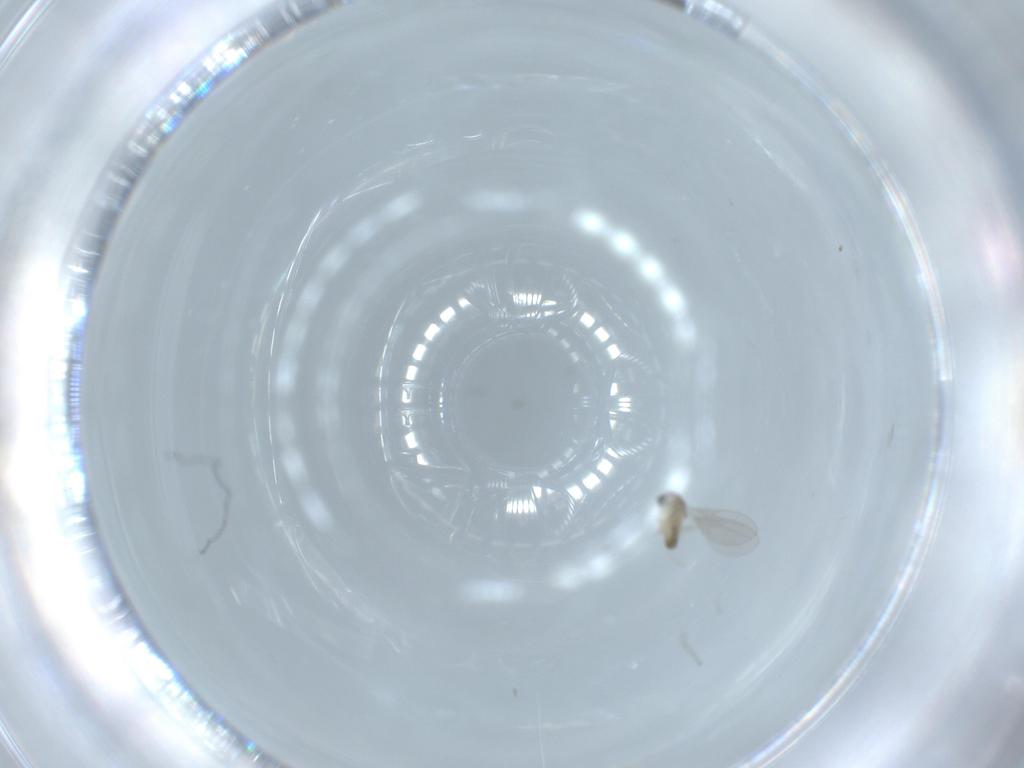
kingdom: Animalia
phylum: Arthropoda
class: Insecta
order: Diptera
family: Cecidomyiidae
